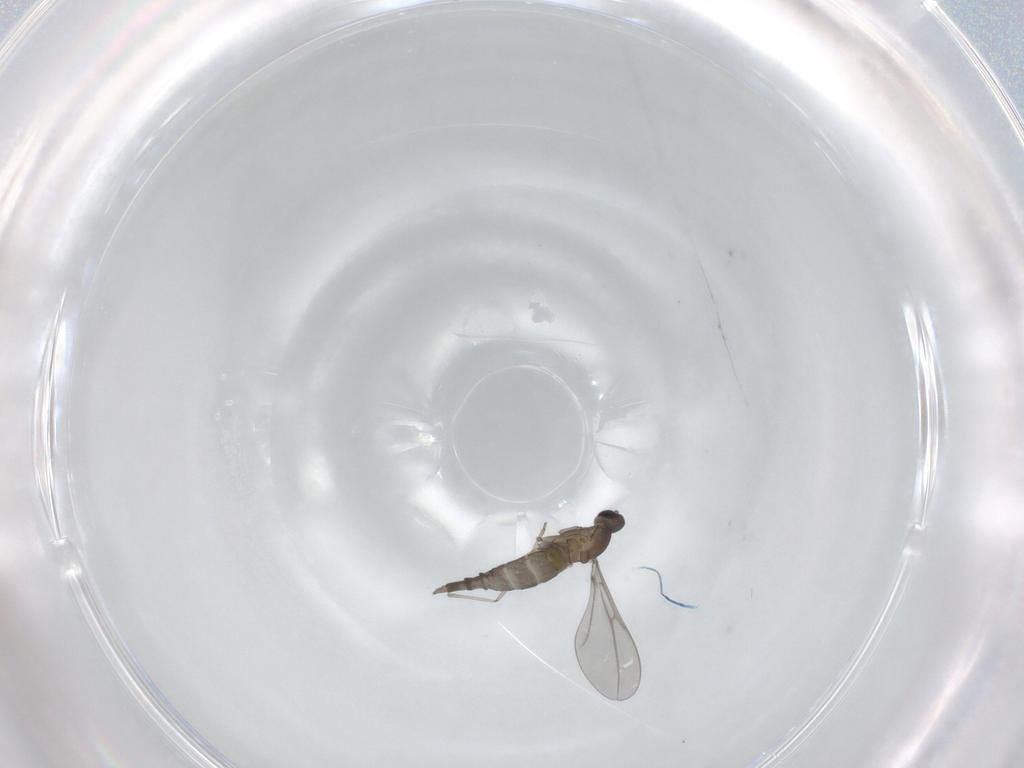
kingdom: Animalia
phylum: Arthropoda
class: Insecta
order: Diptera
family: Cecidomyiidae
